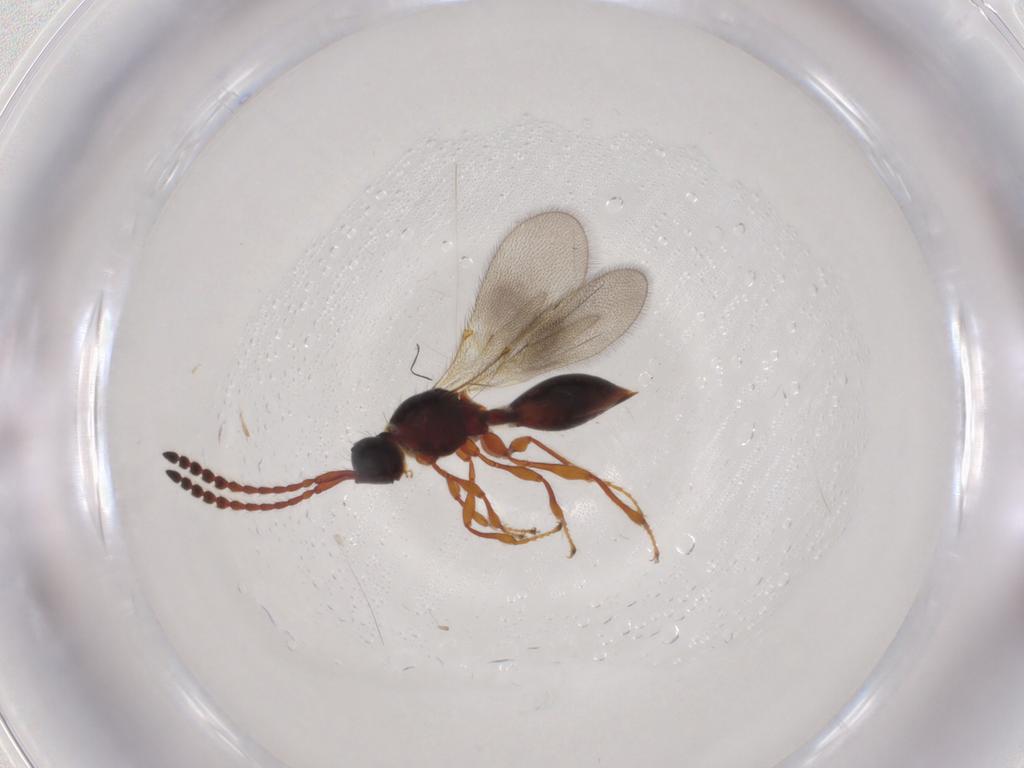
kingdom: Animalia
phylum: Arthropoda
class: Insecta
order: Hymenoptera
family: Diapriidae
